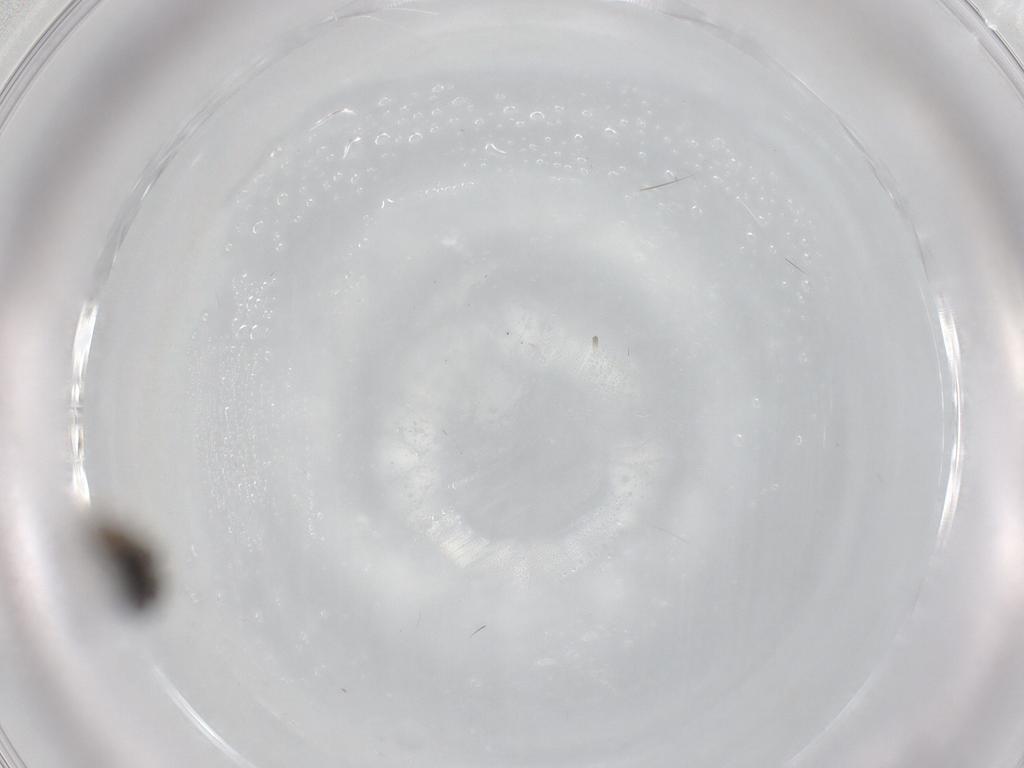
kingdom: Animalia
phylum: Arthropoda
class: Insecta
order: Diptera
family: Phoridae
